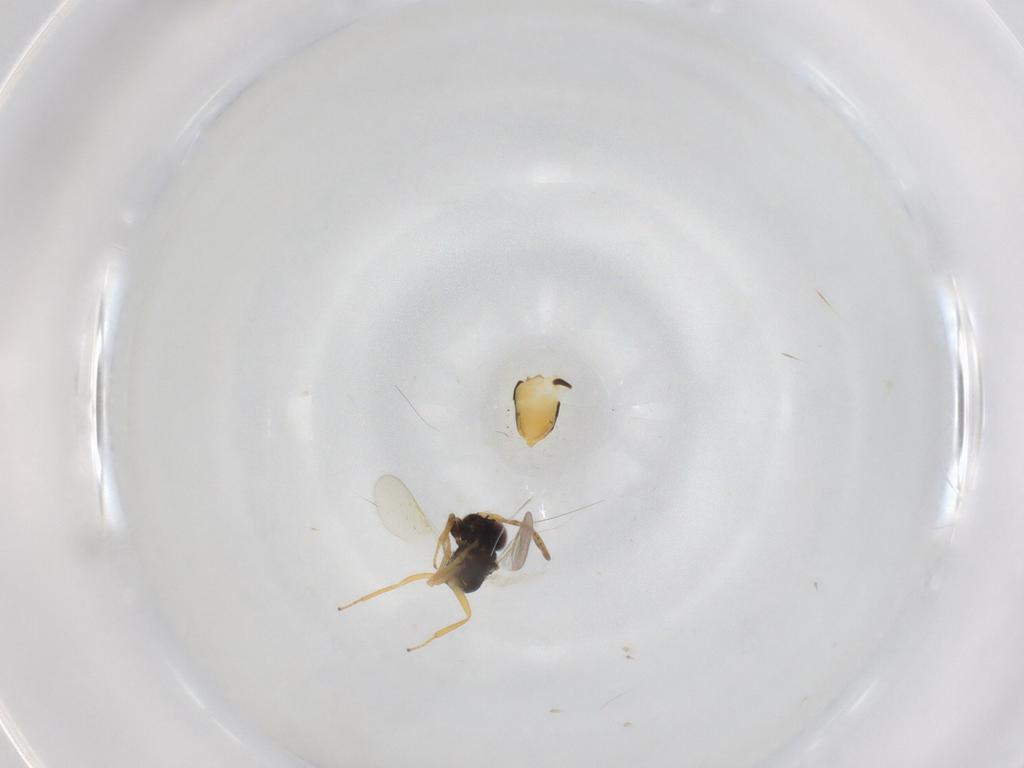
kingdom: Animalia
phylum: Arthropoda
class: Insecta
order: Hymenoptera
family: Encyrtidae
